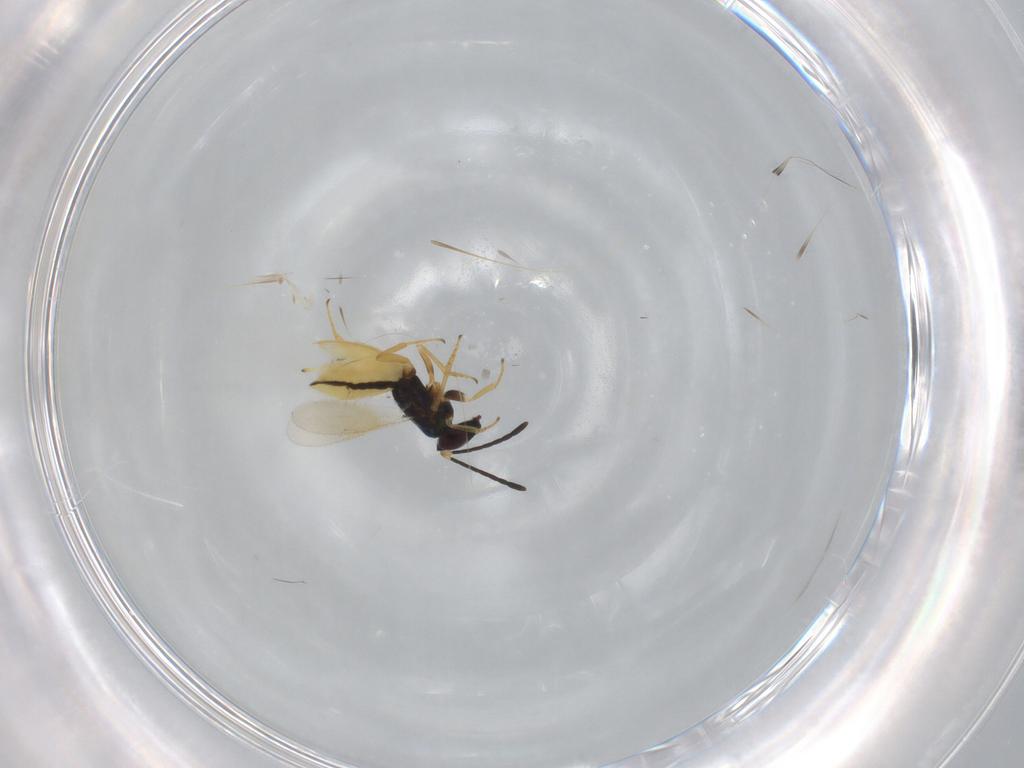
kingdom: Animalia
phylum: Arthropoda
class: Insecta
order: Hymenoptera
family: Encyrtidae
